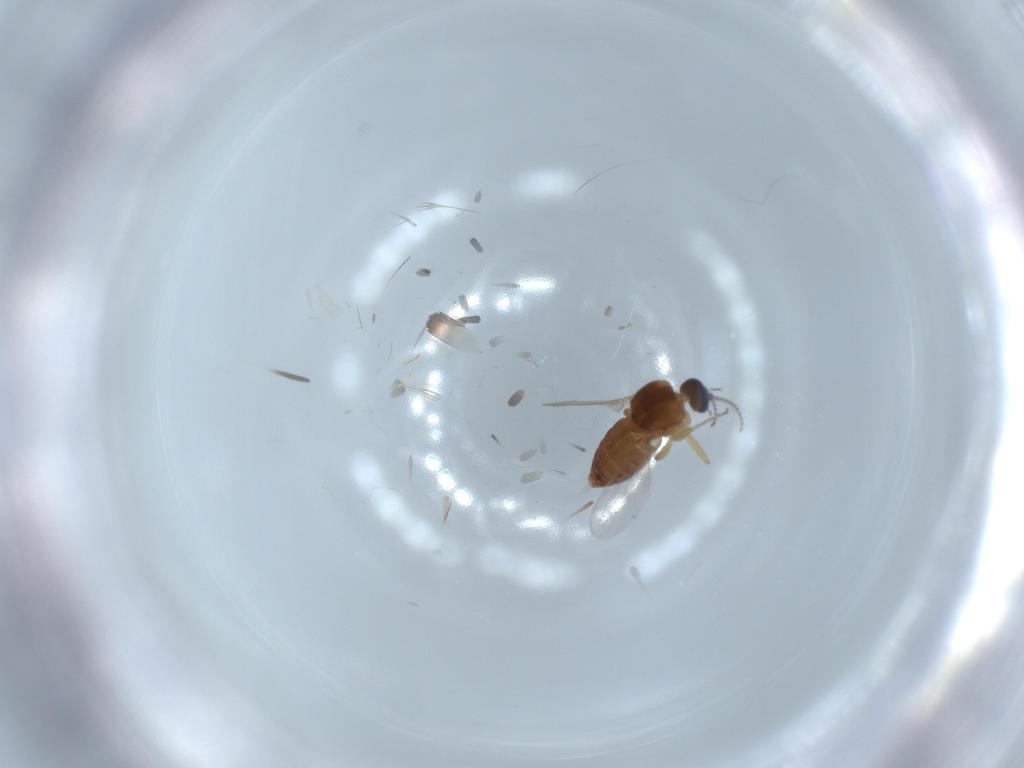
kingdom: Animalia
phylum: Arthropoda
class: Insecta
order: Diptera
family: Ceratopogonidae
